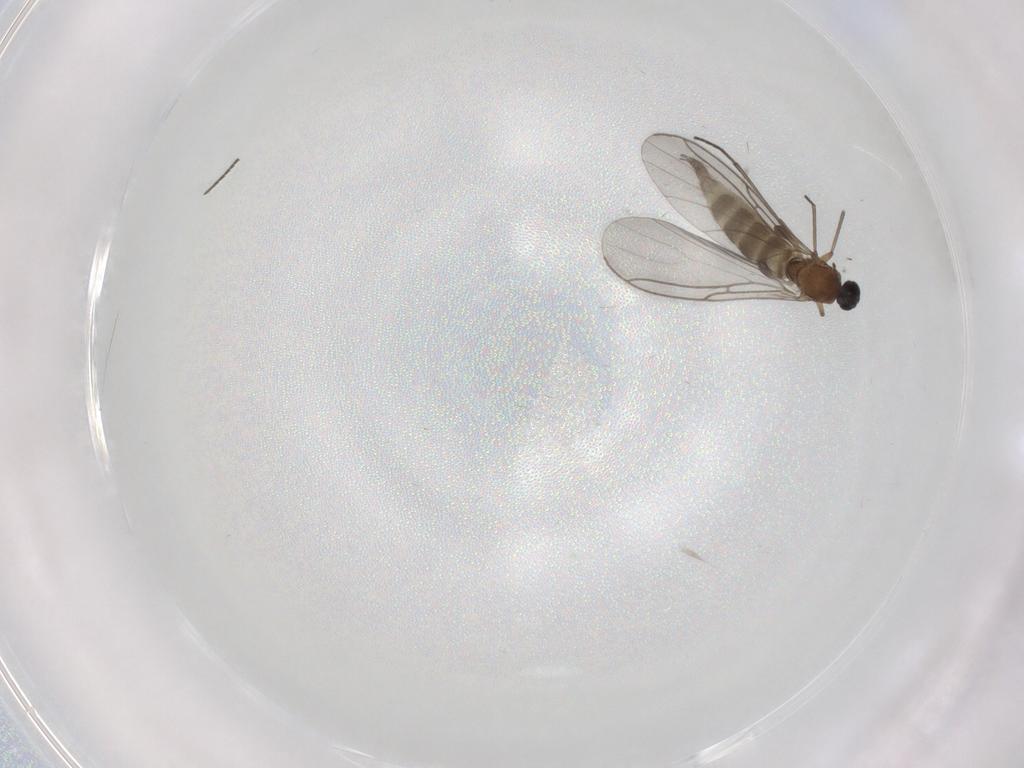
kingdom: Animalia
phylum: Arthropoda
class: Insecta
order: Diptera
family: Sciaridae
